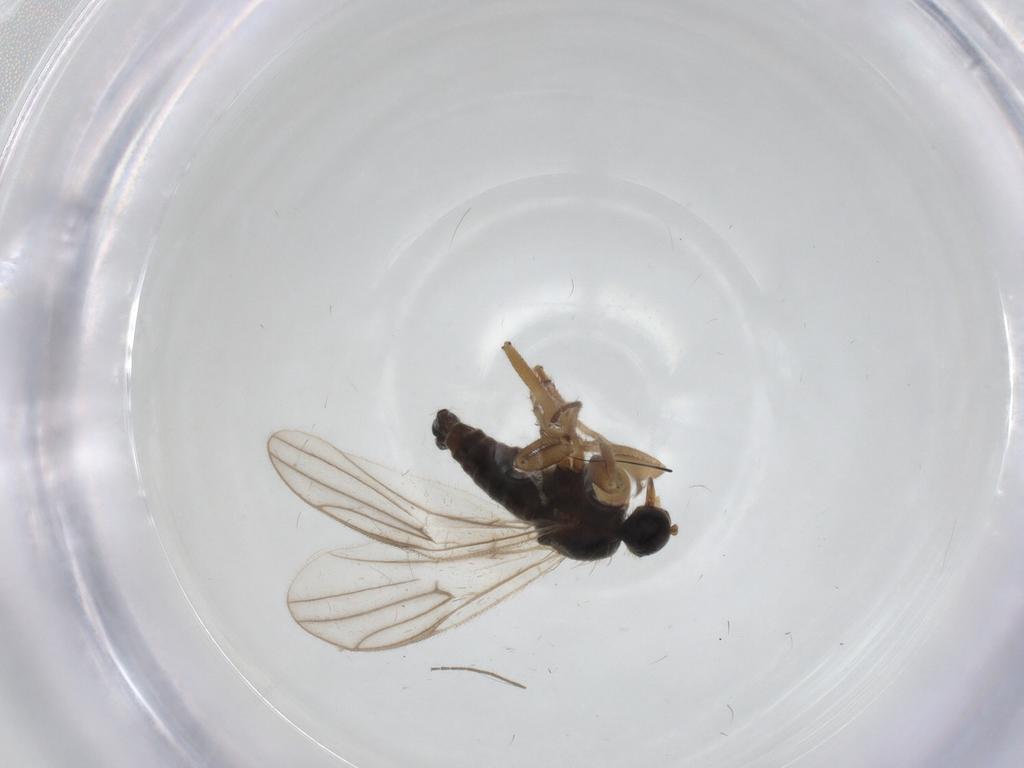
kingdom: Animalia
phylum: Arthropoda
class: Insecta
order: Diptera
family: Hybotidae
